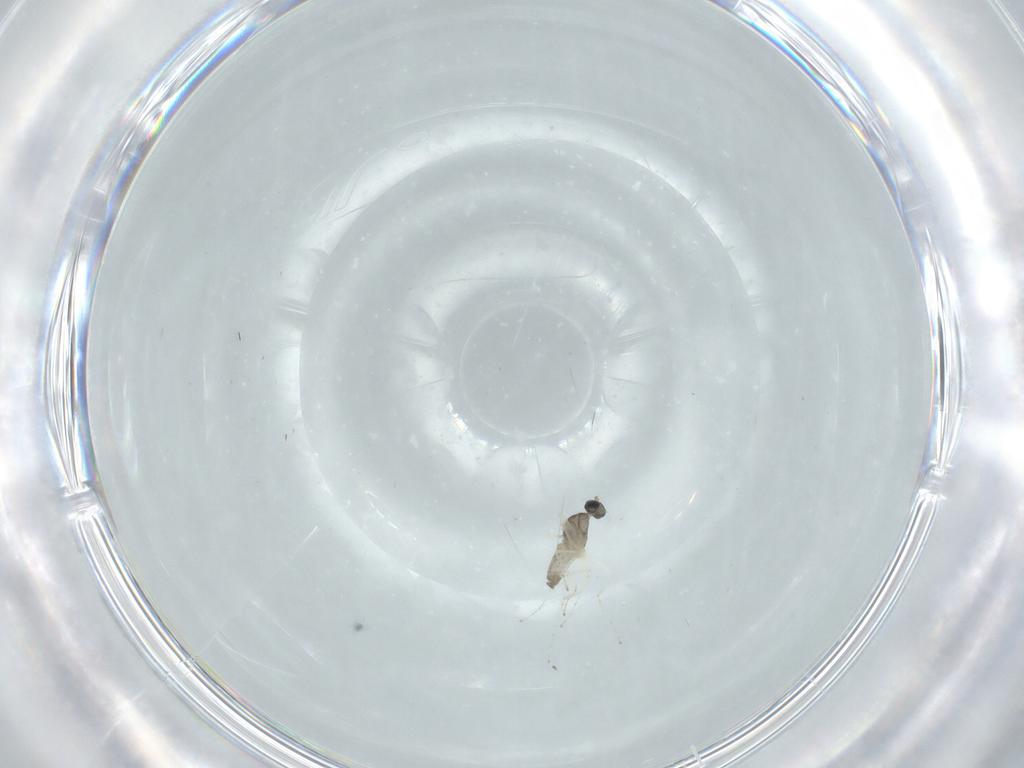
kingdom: Animalia
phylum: Arthropoda
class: Insecta
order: Diptera
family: Cecidomyiidae
